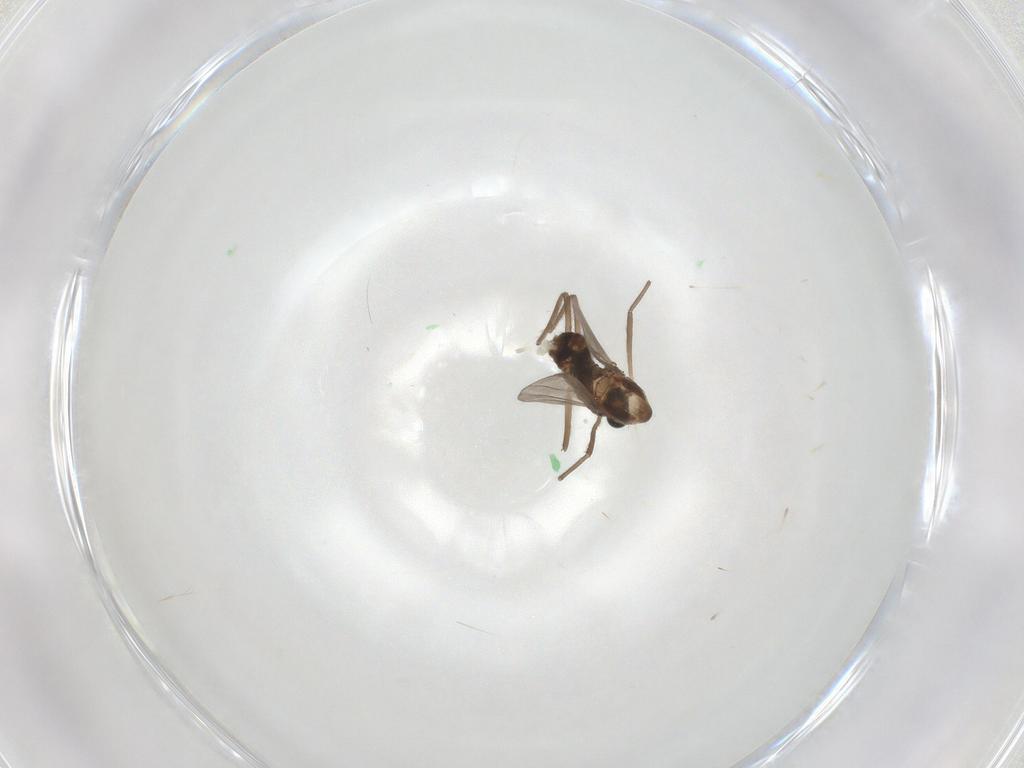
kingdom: Animalia
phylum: Arthropoda
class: Insecta
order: Diptera
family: Chironomidae
